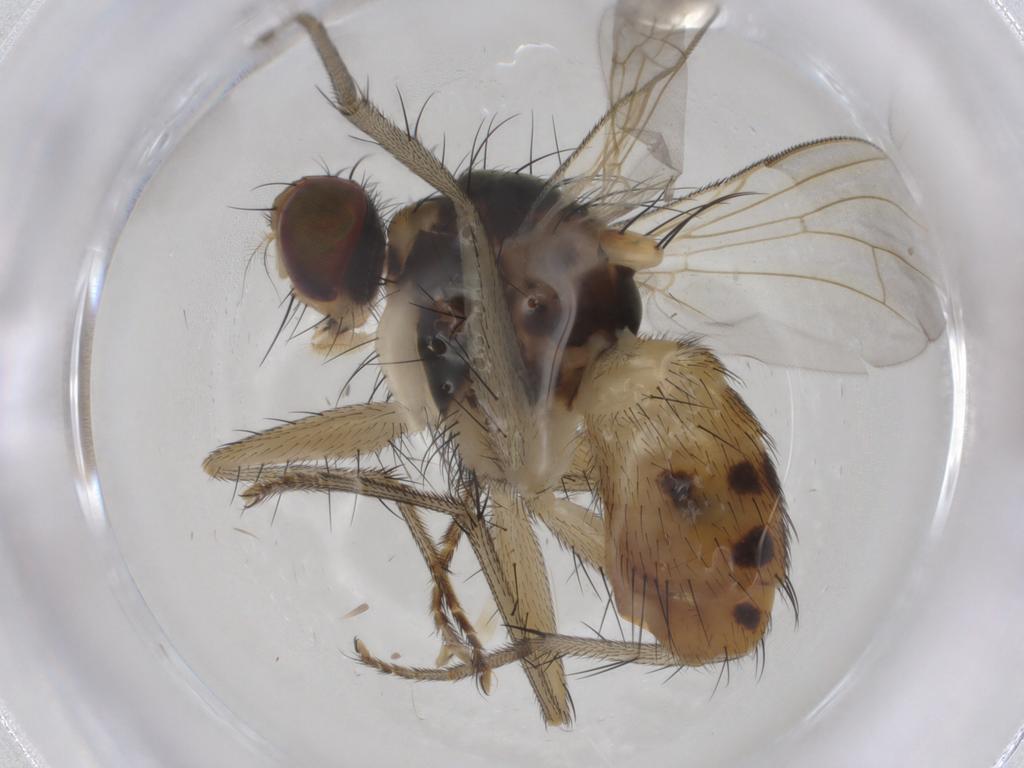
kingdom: Animalia
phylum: Arthropoda
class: Insecta
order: Diptera
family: Muscidae
